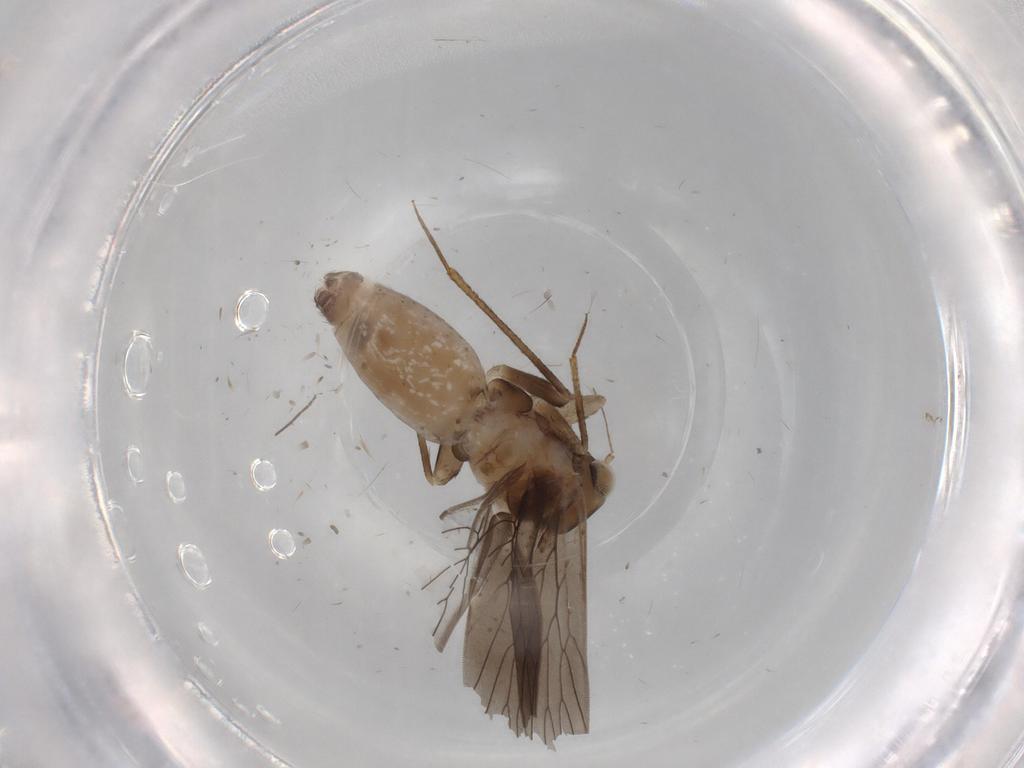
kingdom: Animalia
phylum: Arthropoda
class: Insecta
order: Psocodea
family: Lepidopsocidae
